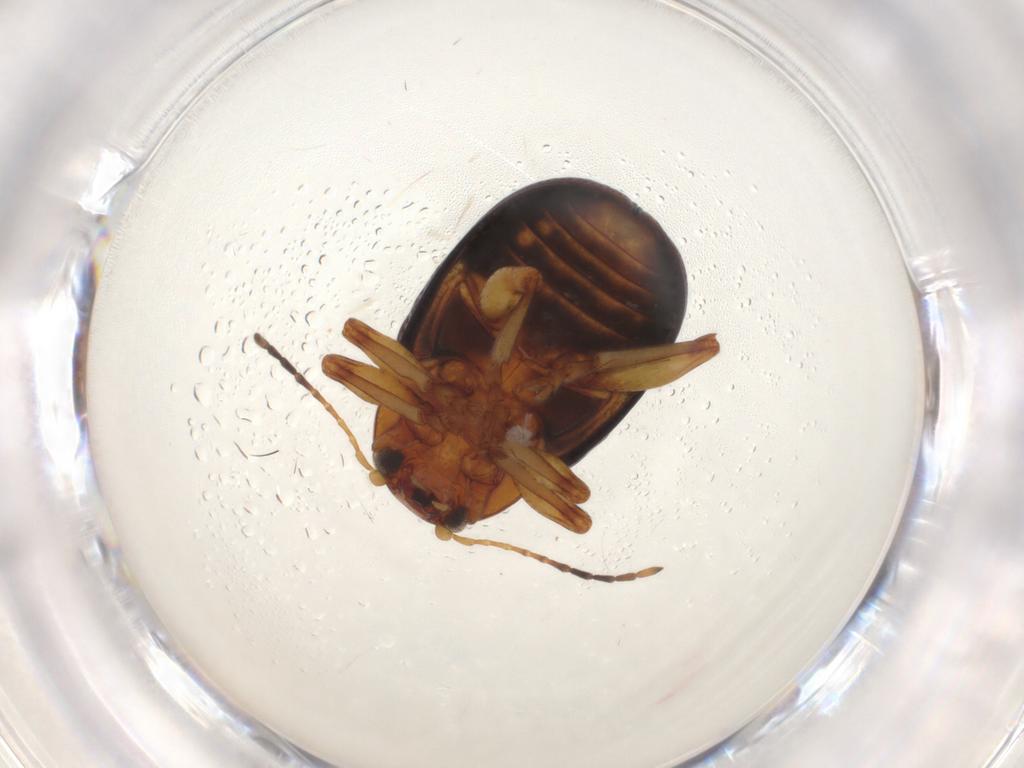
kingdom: Animalia
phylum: Arthropoda
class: Insecta
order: Coleoptera
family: Chrysomelidae
